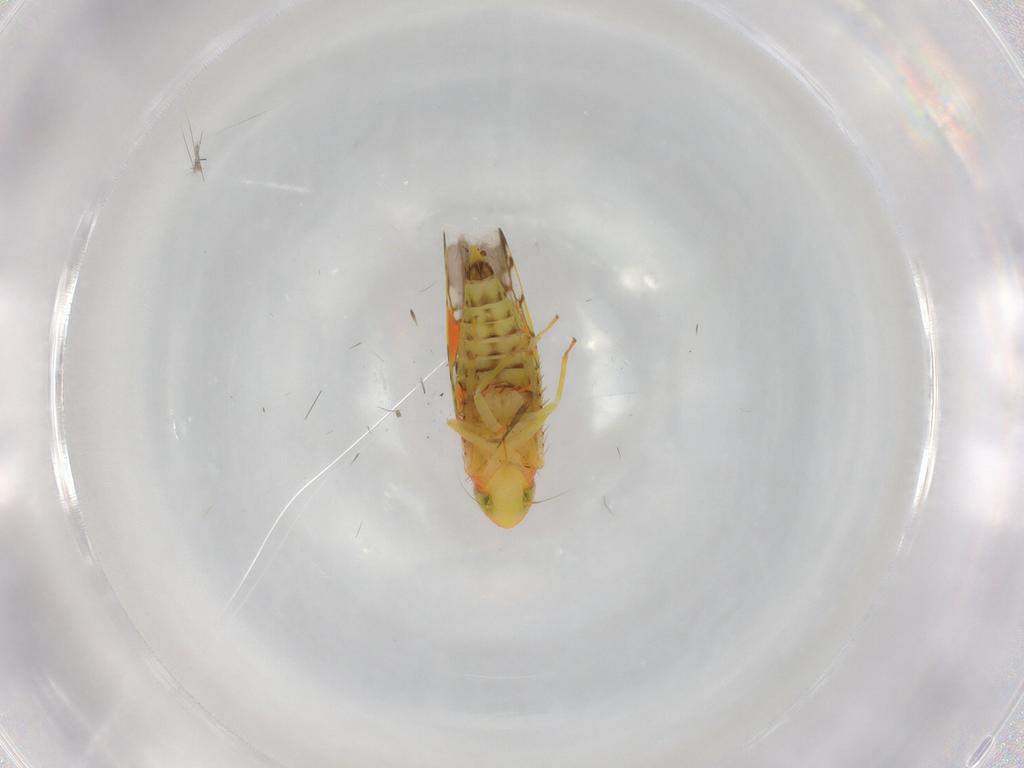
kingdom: Animalia
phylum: Arthropoda
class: Insecta
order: Hemiptera
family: Cicadellidae
